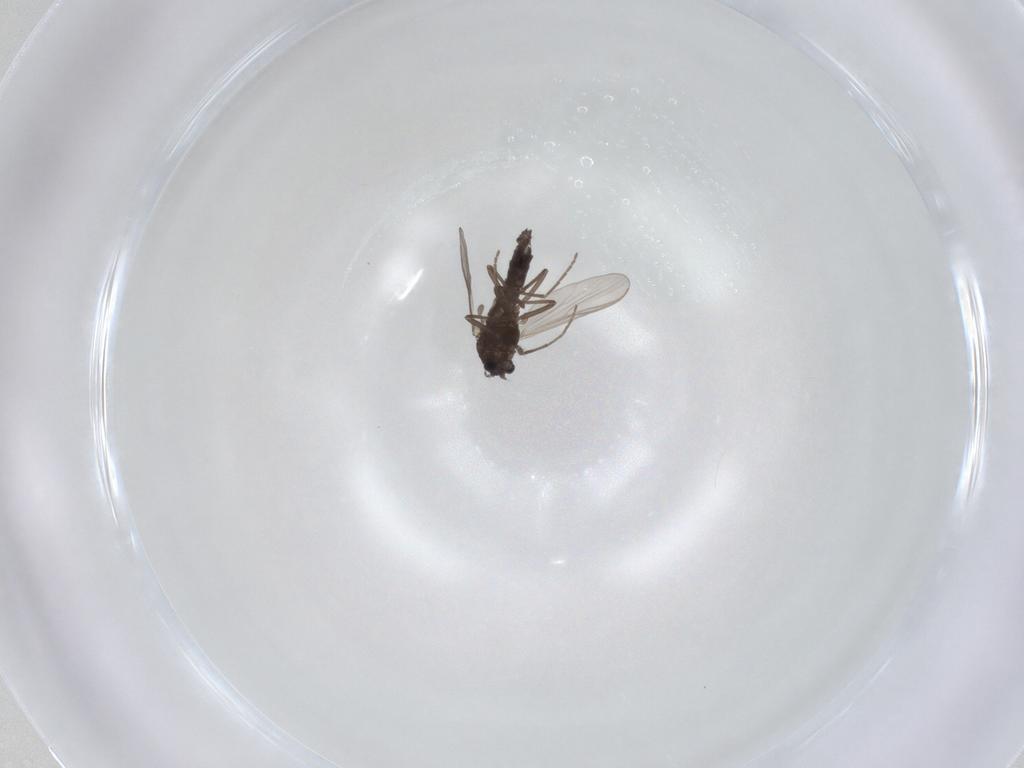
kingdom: Animalia
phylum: Arthropoda
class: Insecta
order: Diptera
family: Chironomidae
